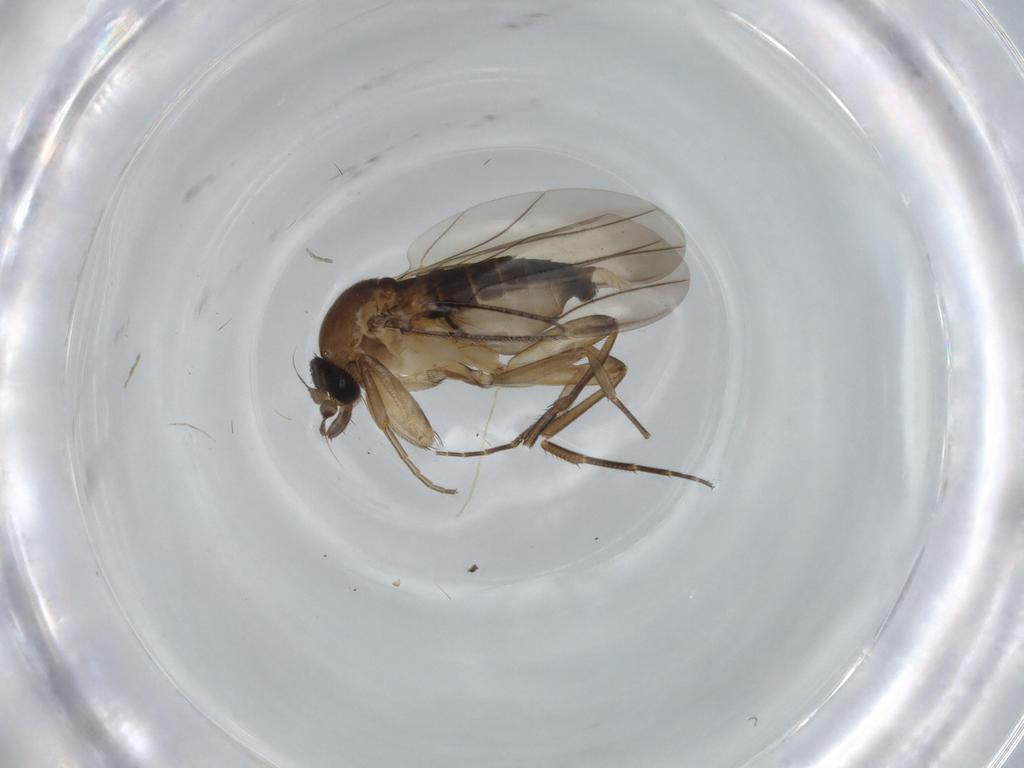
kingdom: Animalia
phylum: Arthropoda
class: Insecta
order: Diptera
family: Phoridae
